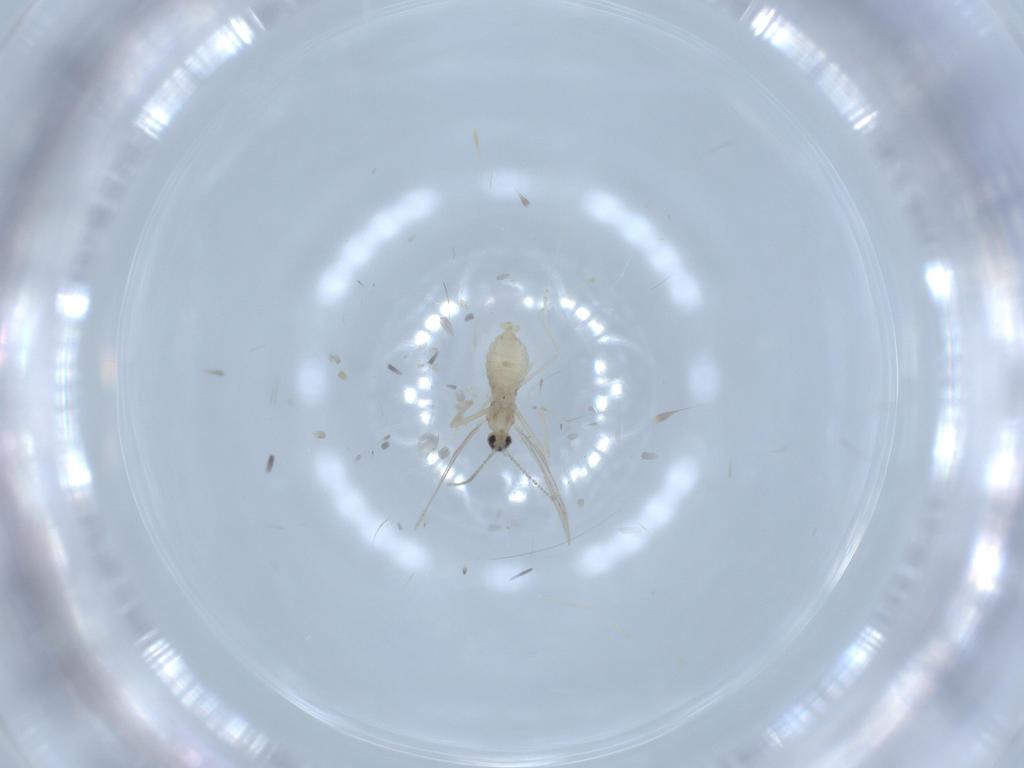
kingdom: Animalia
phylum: Arthropoda
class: Insecta
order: Diptera
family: Cecidomyiidae
